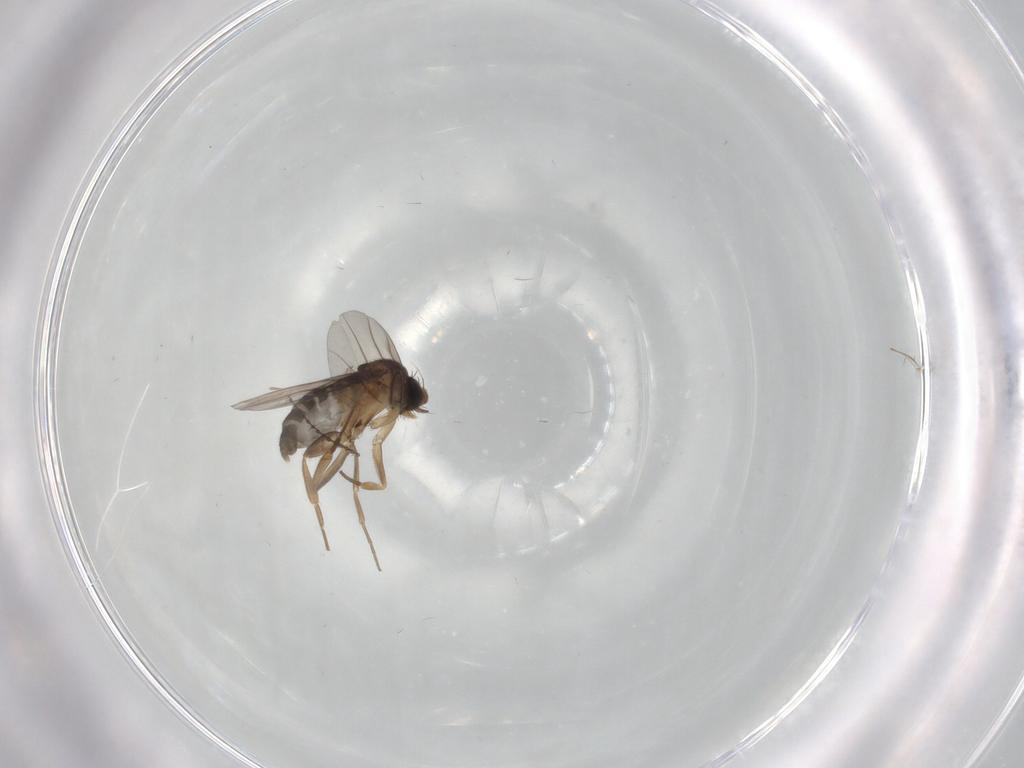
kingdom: Animalia
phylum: Arthropoda
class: Insecta
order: Diptera
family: Cecidomyiidae
